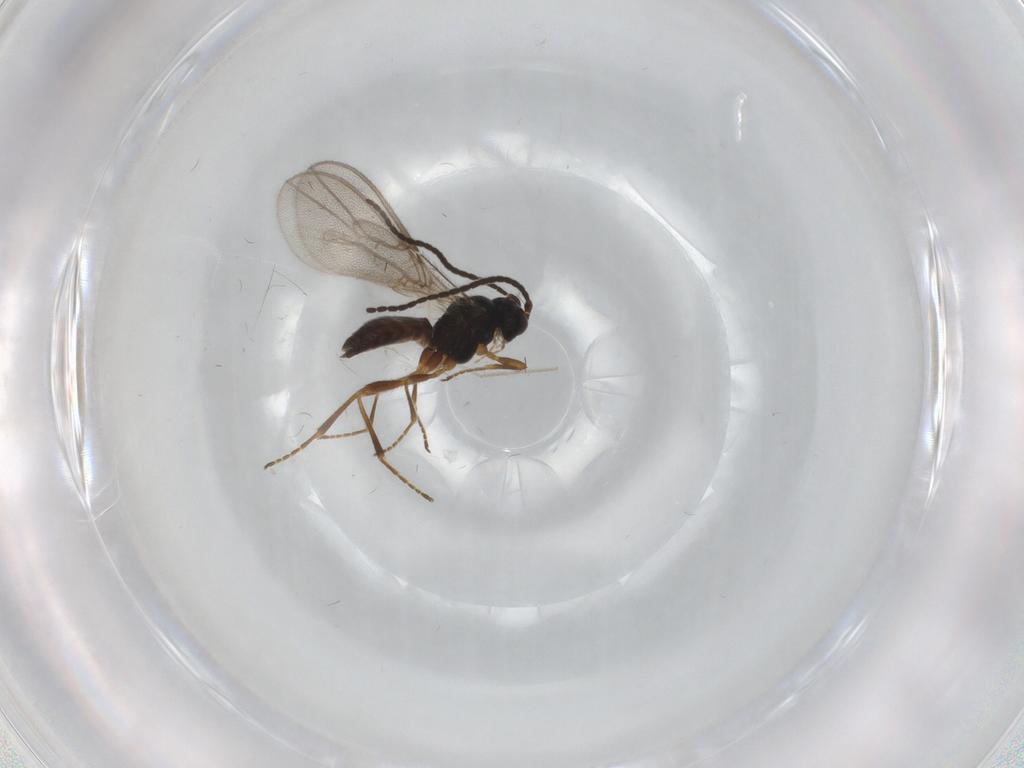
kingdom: Animalia
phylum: Arthropoda
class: Insecta
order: Hymenoptera
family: Braconidae
